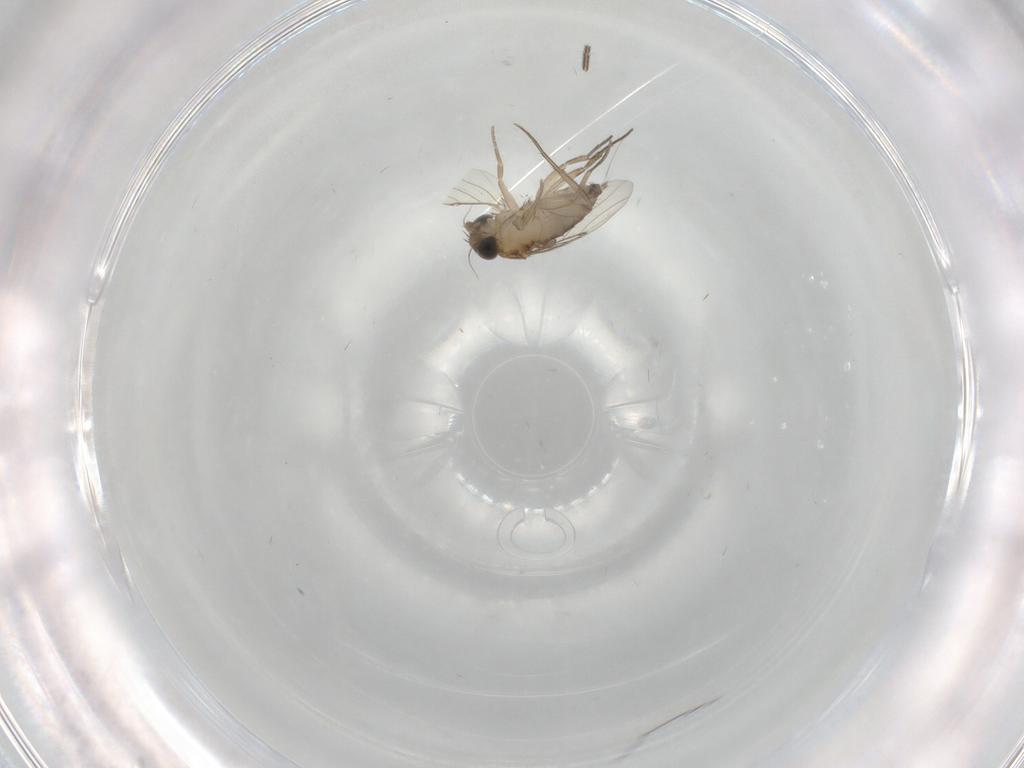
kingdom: Animalia
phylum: Arthropoda
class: Insecta
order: Diptera
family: Phoridae
